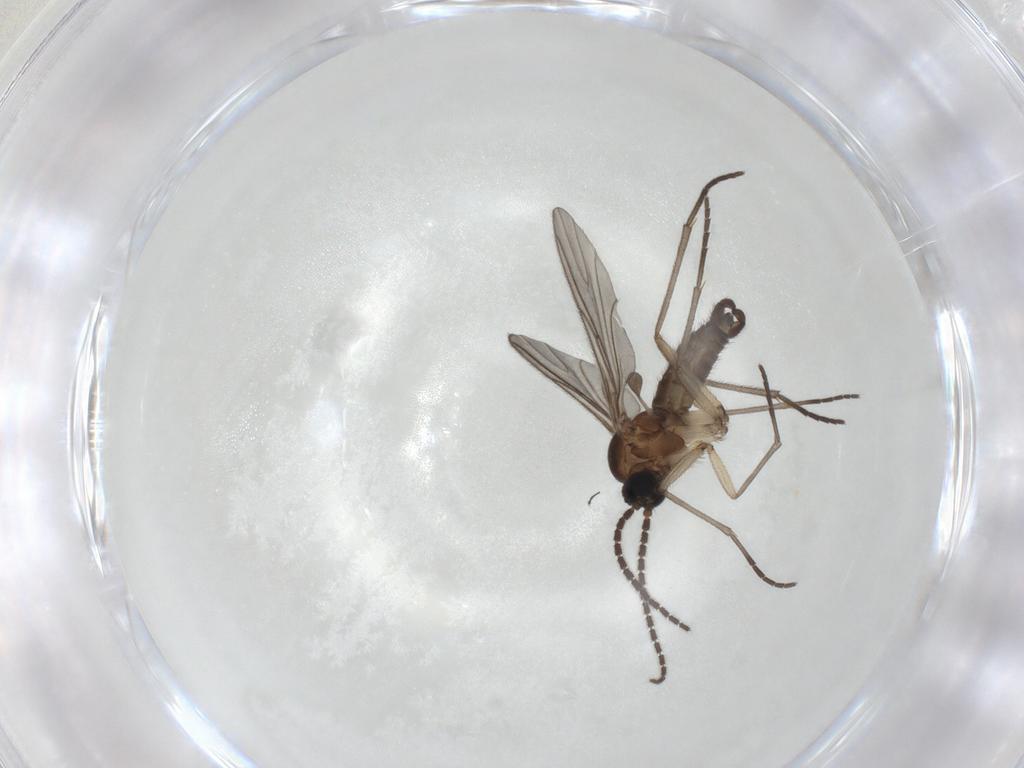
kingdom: Animalia
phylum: Arthropoda
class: Insecta
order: Diptera
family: Sciaridae
